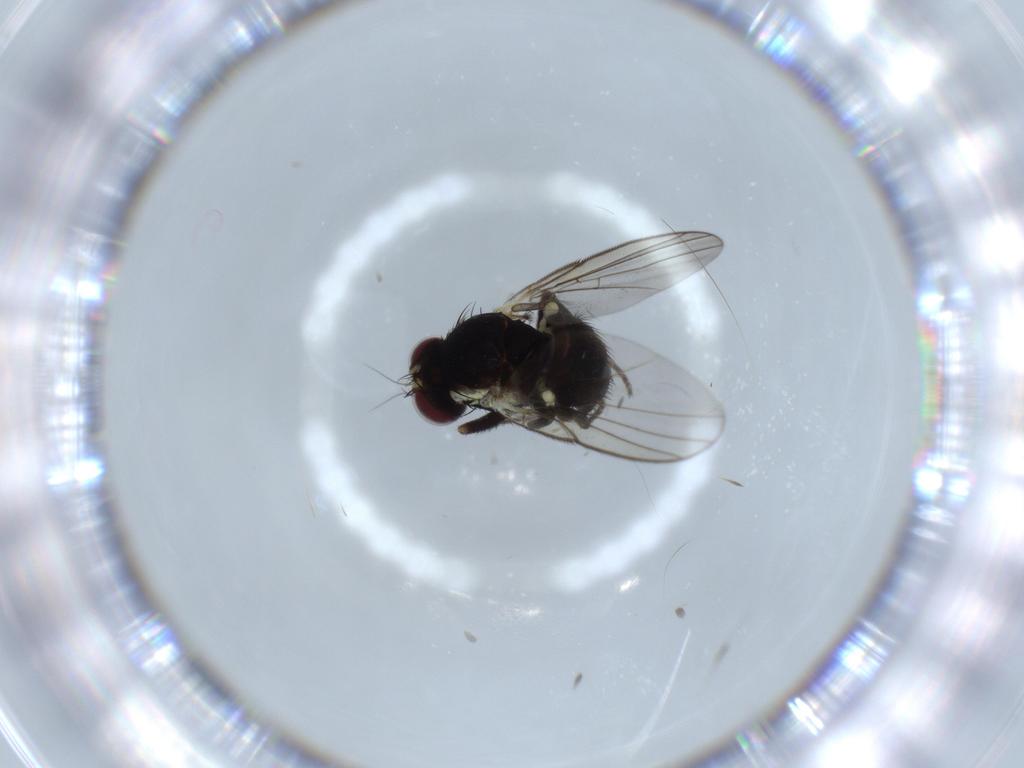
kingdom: Animalia
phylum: Arthropoda
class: Insecta
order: Diptera
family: Agromyzidae
